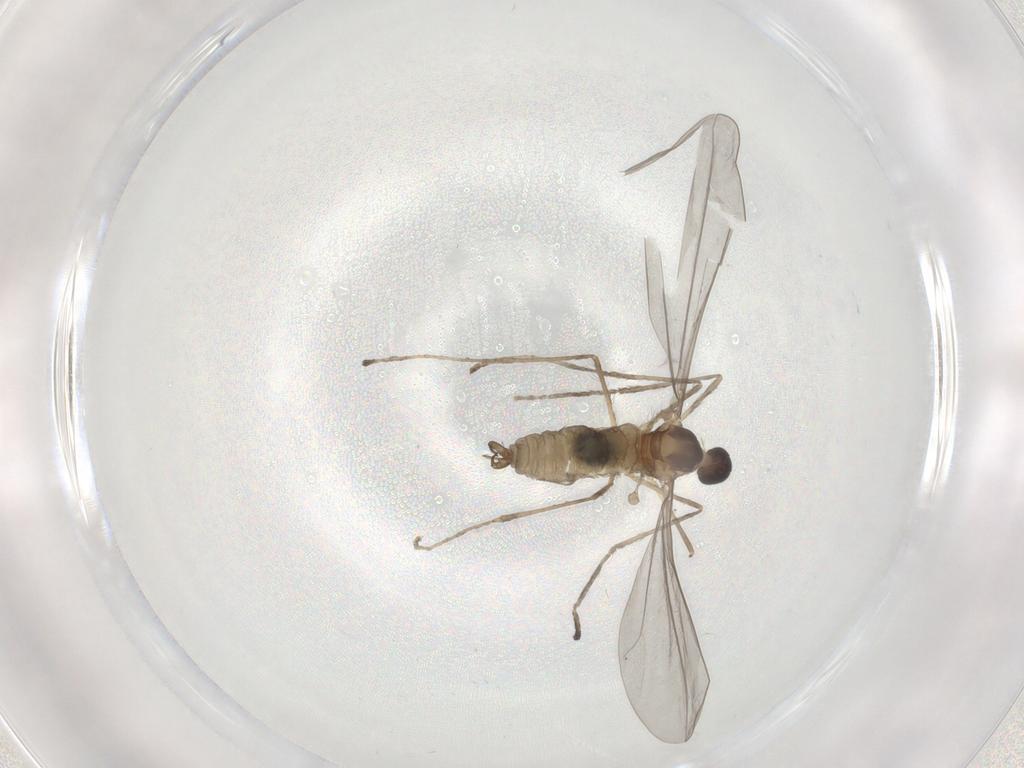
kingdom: Animalia
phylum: Arthropoda
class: Insecta
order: Diptera
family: Cecidomyiidae
